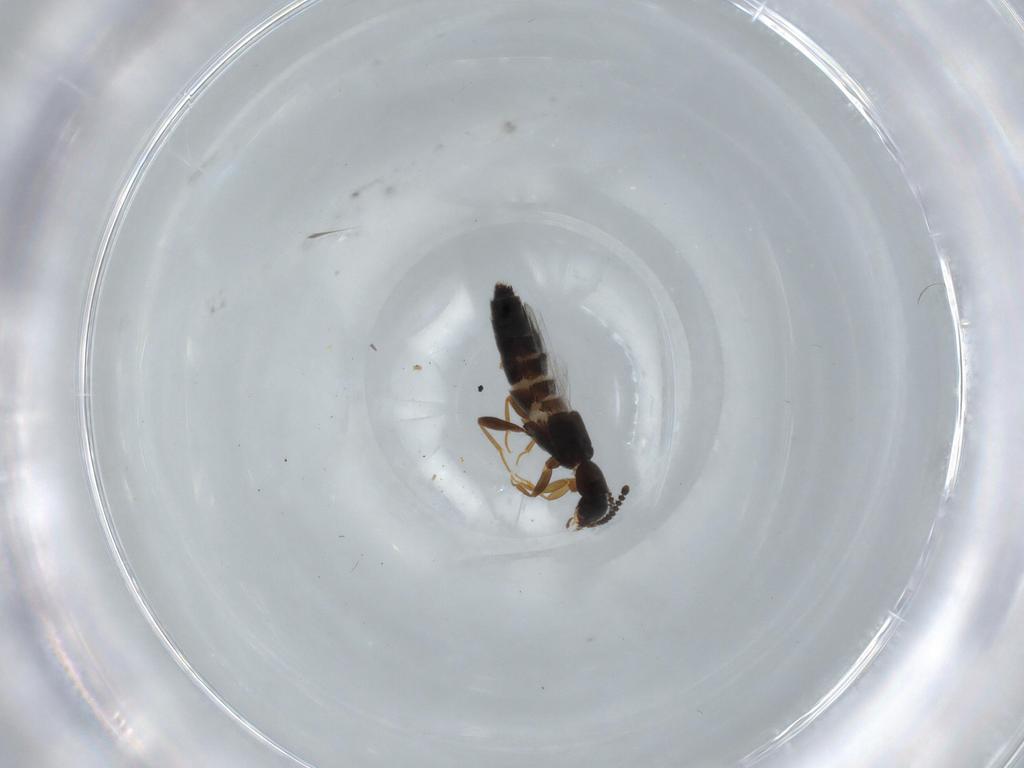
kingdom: Animalia
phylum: Arthropoda
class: Insecta
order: Coleoptera
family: Staphylinidae
